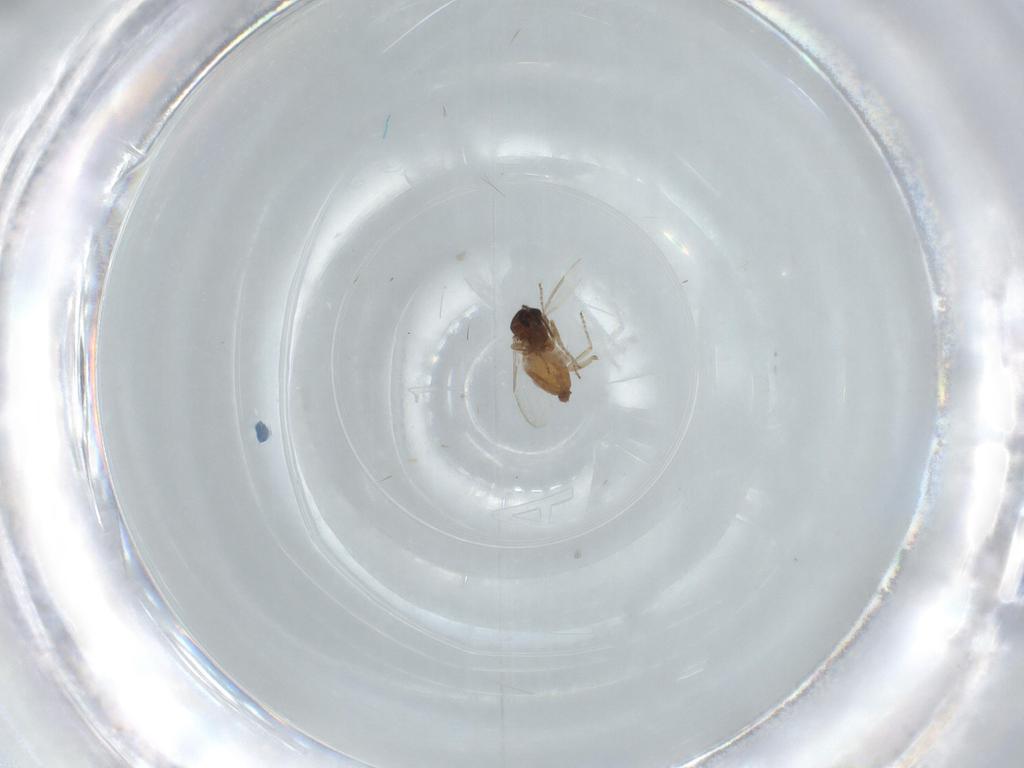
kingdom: Animalia
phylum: Arthropoda
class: Insecta
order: Diptera
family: Ceratopogonidae
